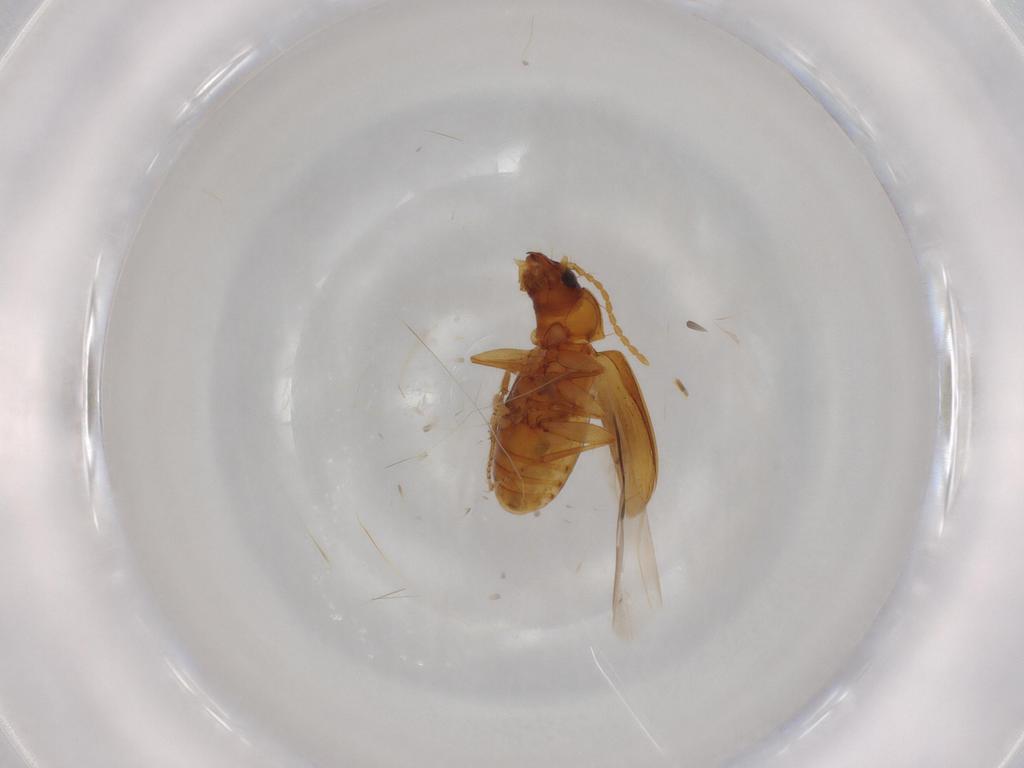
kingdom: Animalia
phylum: Arthropoda
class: Insecta
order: Coleoptera
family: Carabidae
